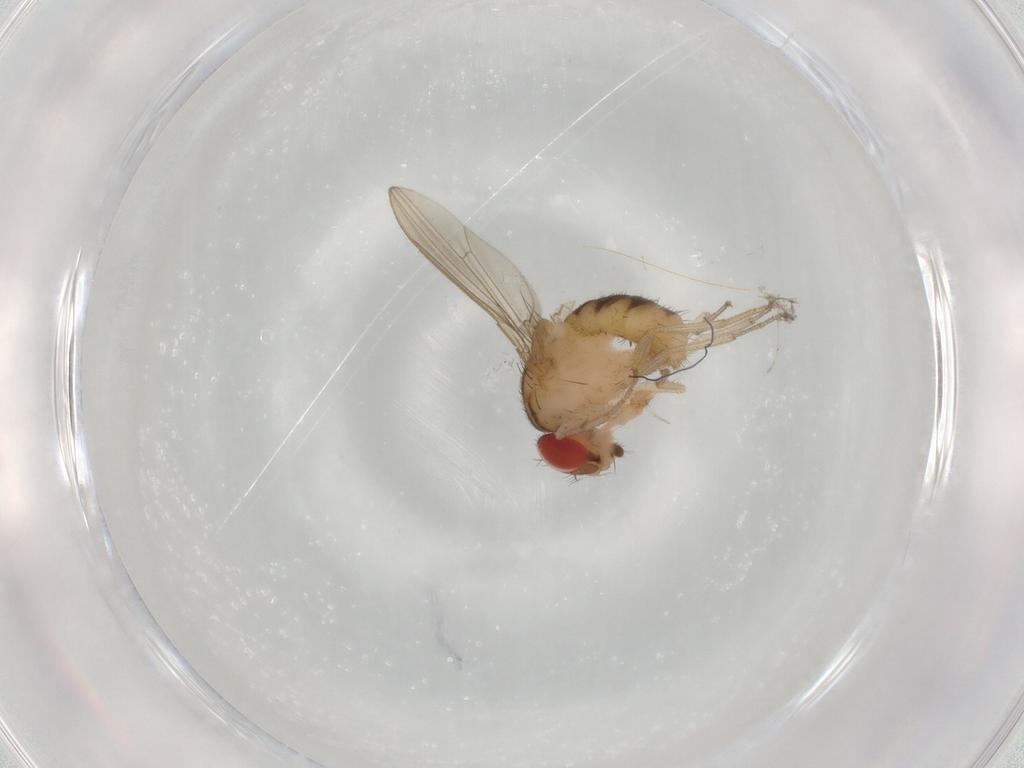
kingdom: Animalia
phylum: Arthropoda
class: Insecta
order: Diptera
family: Drosophilidae
